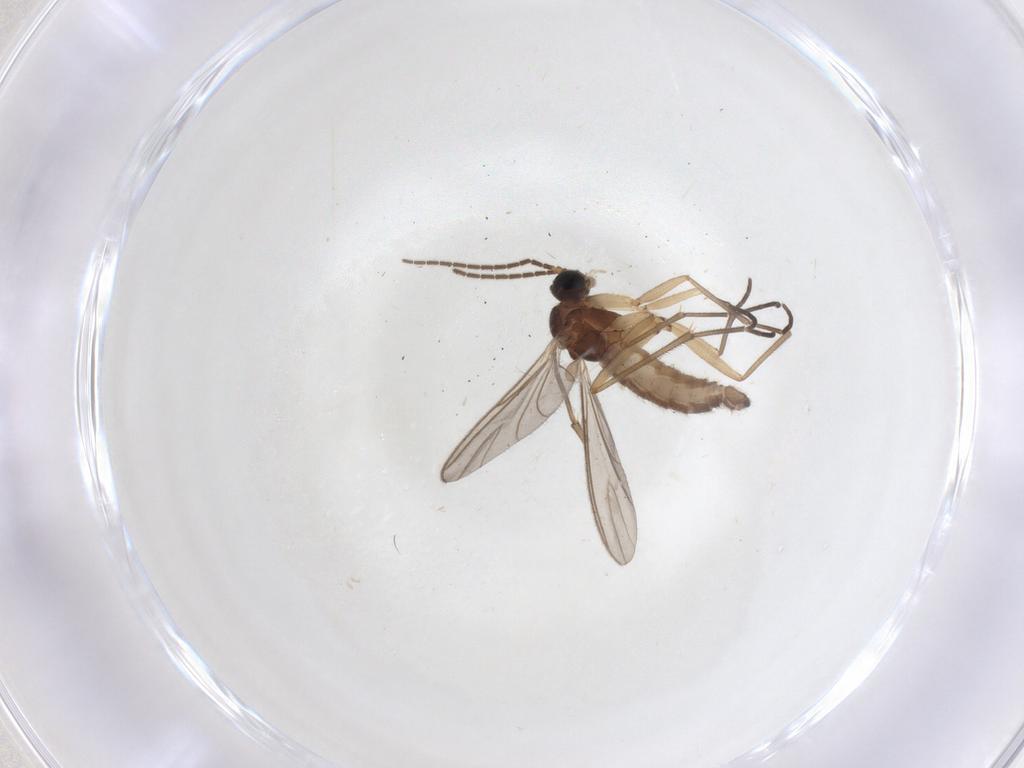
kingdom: Animalia
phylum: Arthropoda
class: Insecta
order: Diptera
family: Sciaridae
